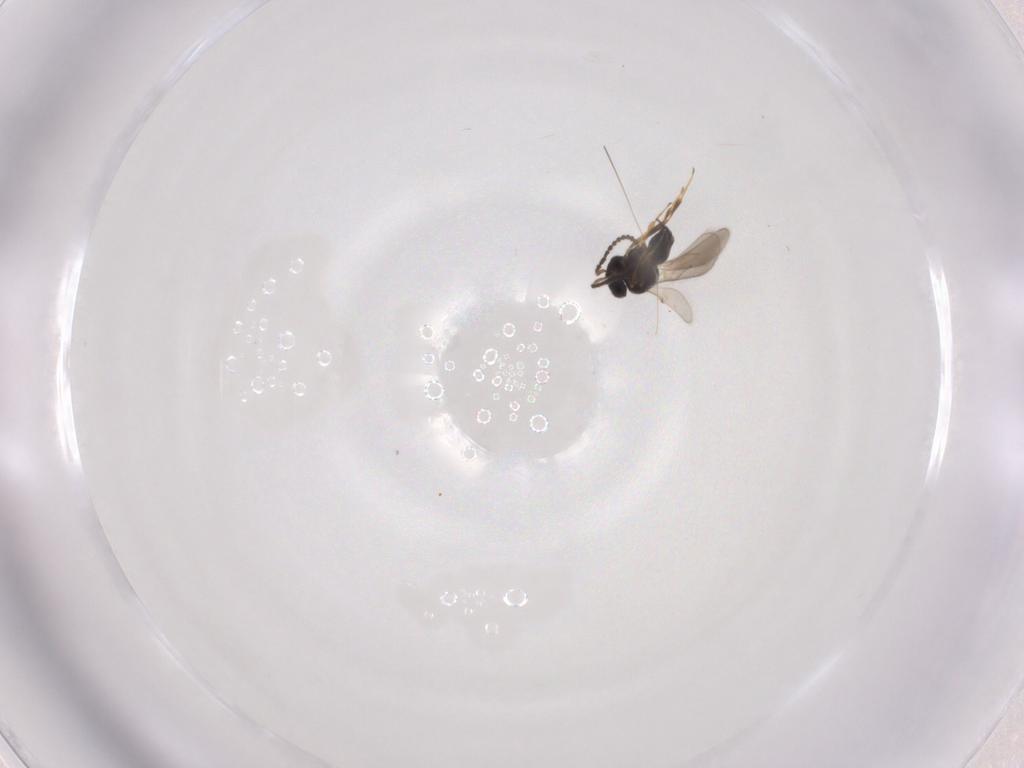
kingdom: Animalia
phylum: Arthropoda
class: Insecta
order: Hymenoptera
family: Scelionidae
